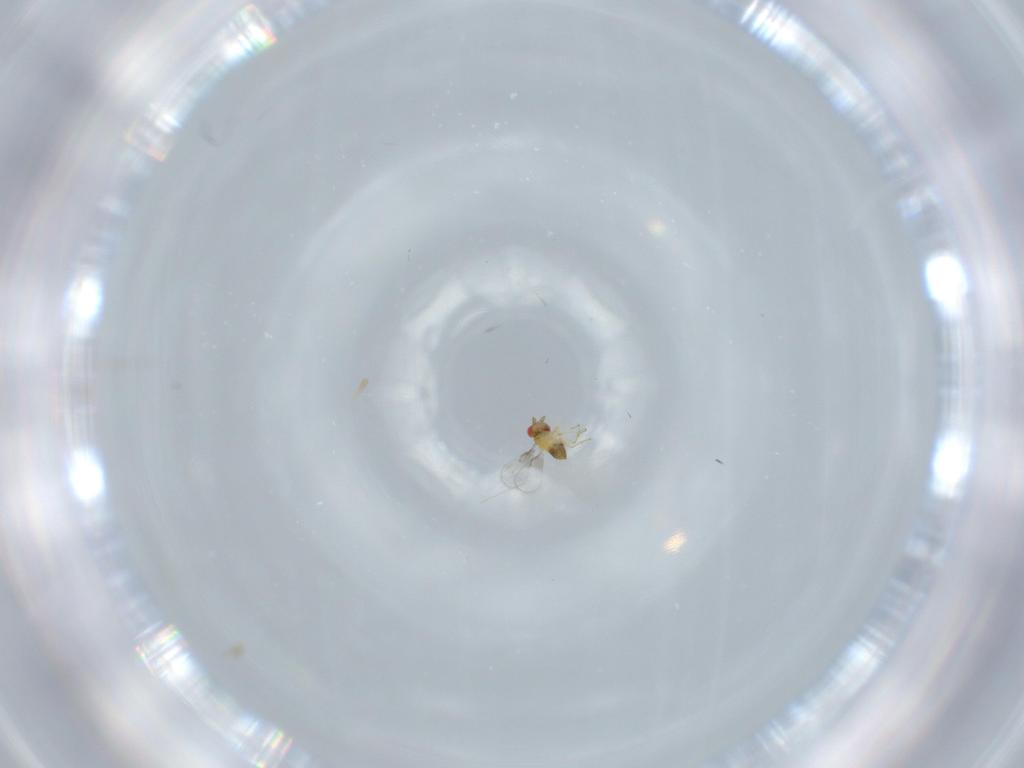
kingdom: Animalia
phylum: Arthropoda
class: Insecta
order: Hymenoptera
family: Trichogrammatidae
